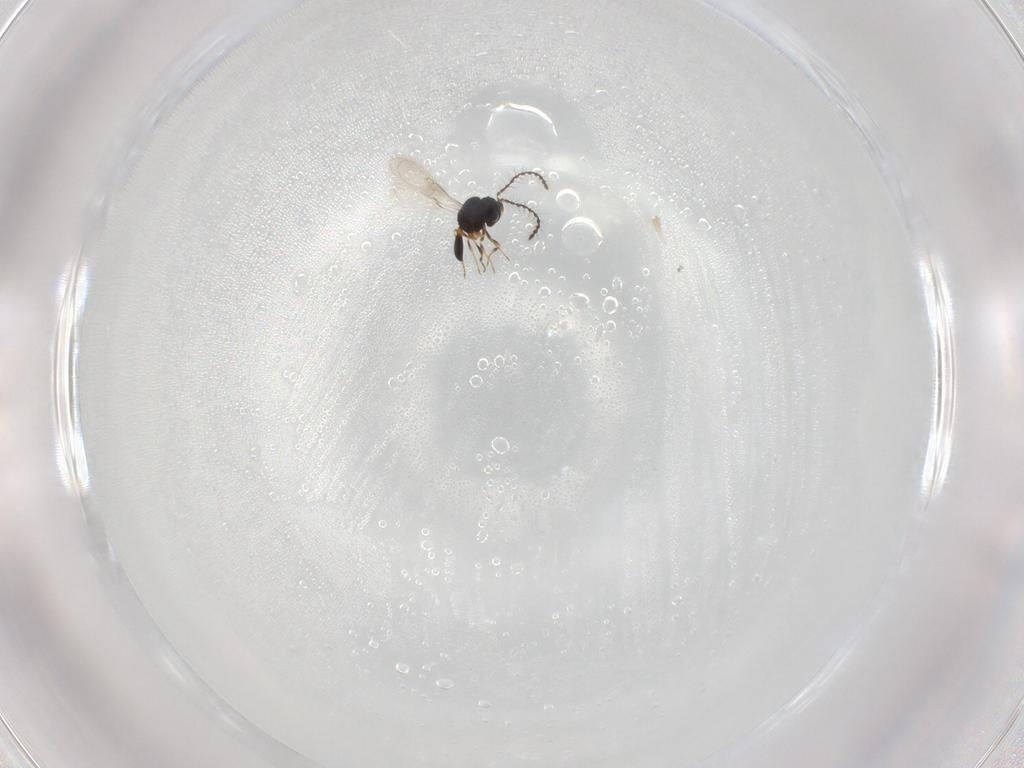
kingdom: Animalia
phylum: Arthropoda
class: Insecta
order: Hymenoptera
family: Scelionidae
